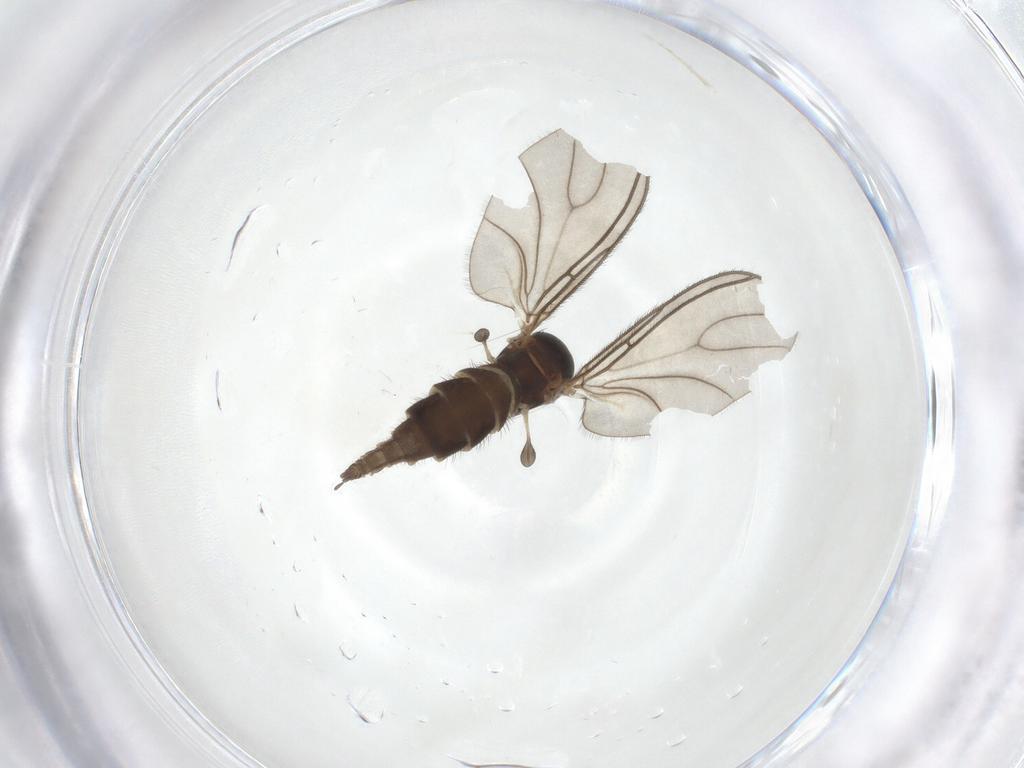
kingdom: Animalia
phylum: Arthropoda
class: Insecta
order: Diptera
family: Sciaridae
